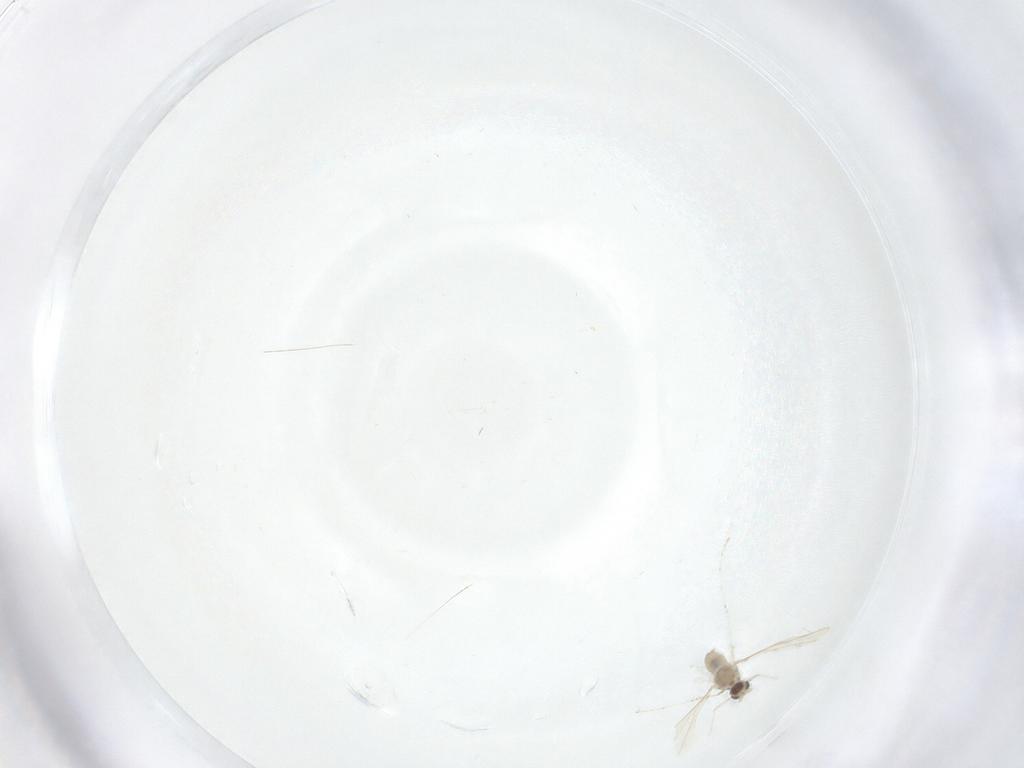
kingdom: Animalia
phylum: Arthropoda
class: Insecta
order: Diptera
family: Cecidomyiidae
